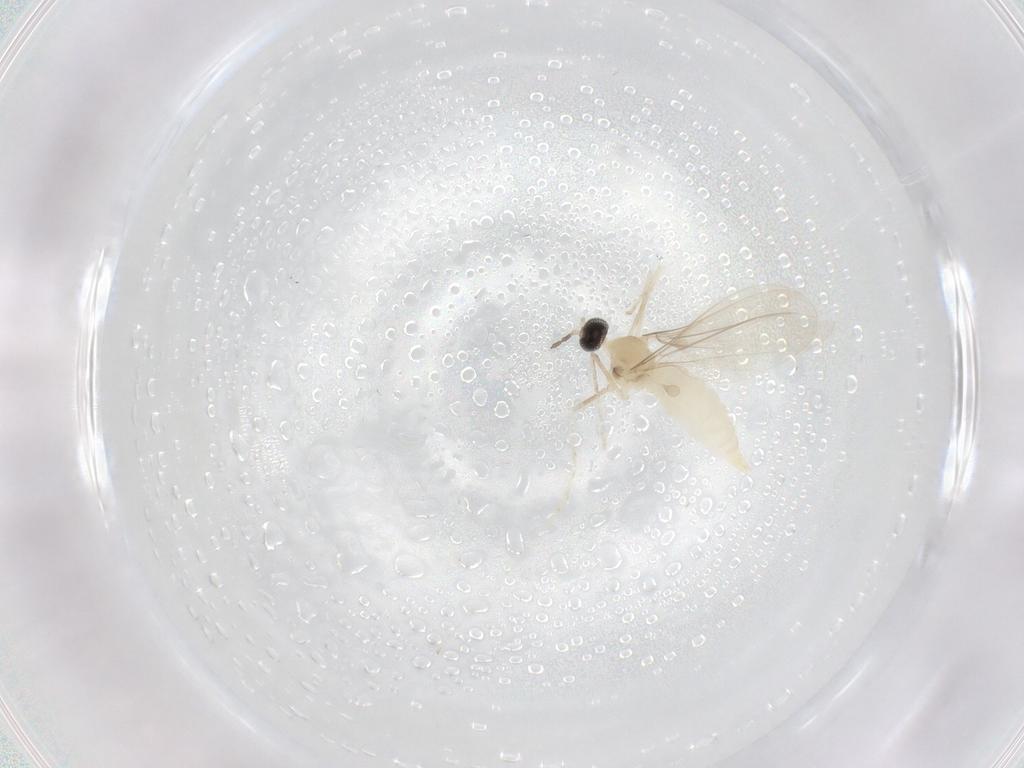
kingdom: Animalia
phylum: Arthropoda
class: Insecta
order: Diptera
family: Cecidomyiidae
